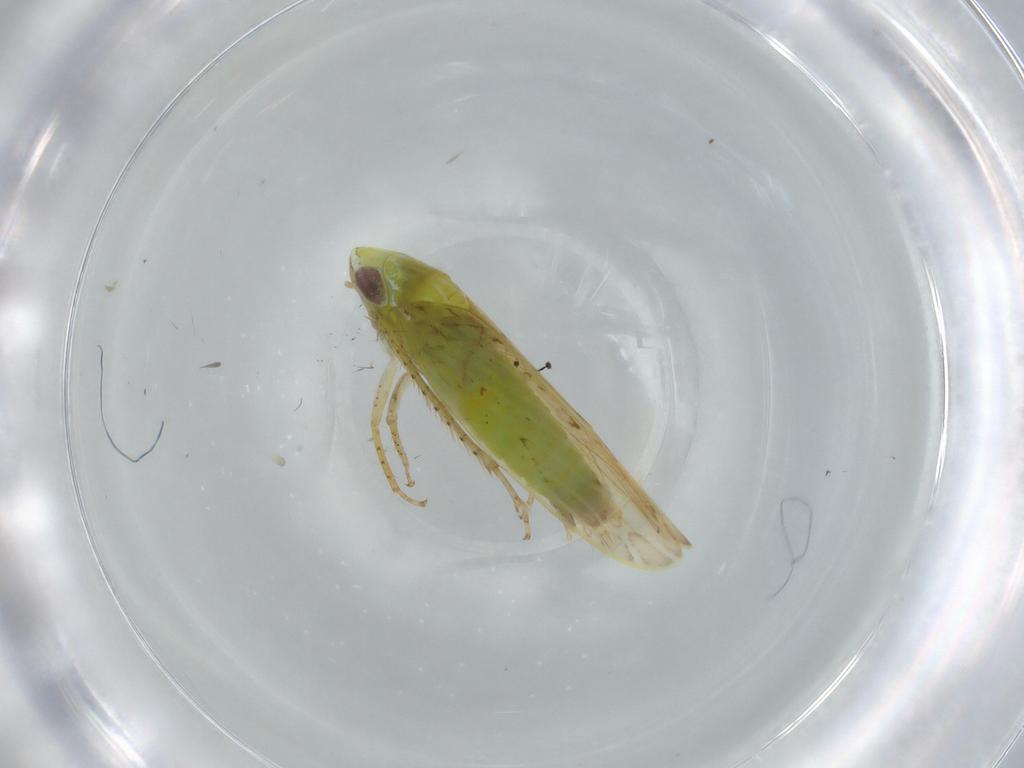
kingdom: Animalia
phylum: Arthropoda
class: Insecta
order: Hemiptera
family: Cicadellidae
